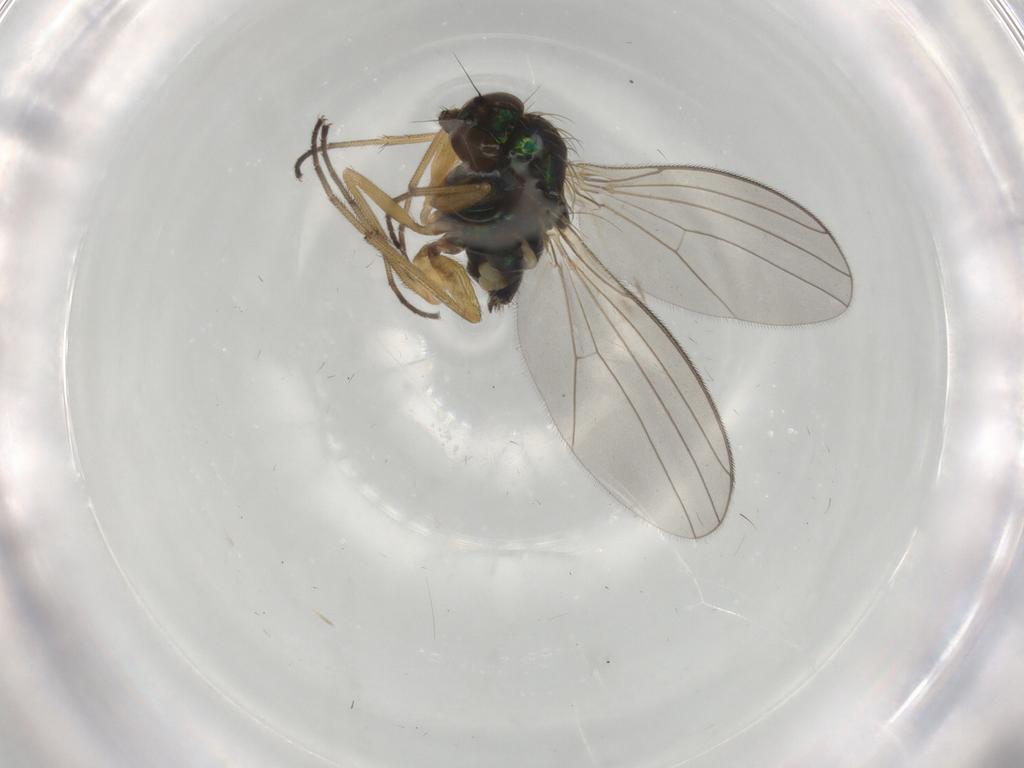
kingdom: Animalia
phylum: Arthropoda
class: Insecta
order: Diptera
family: Dolichopodidae
